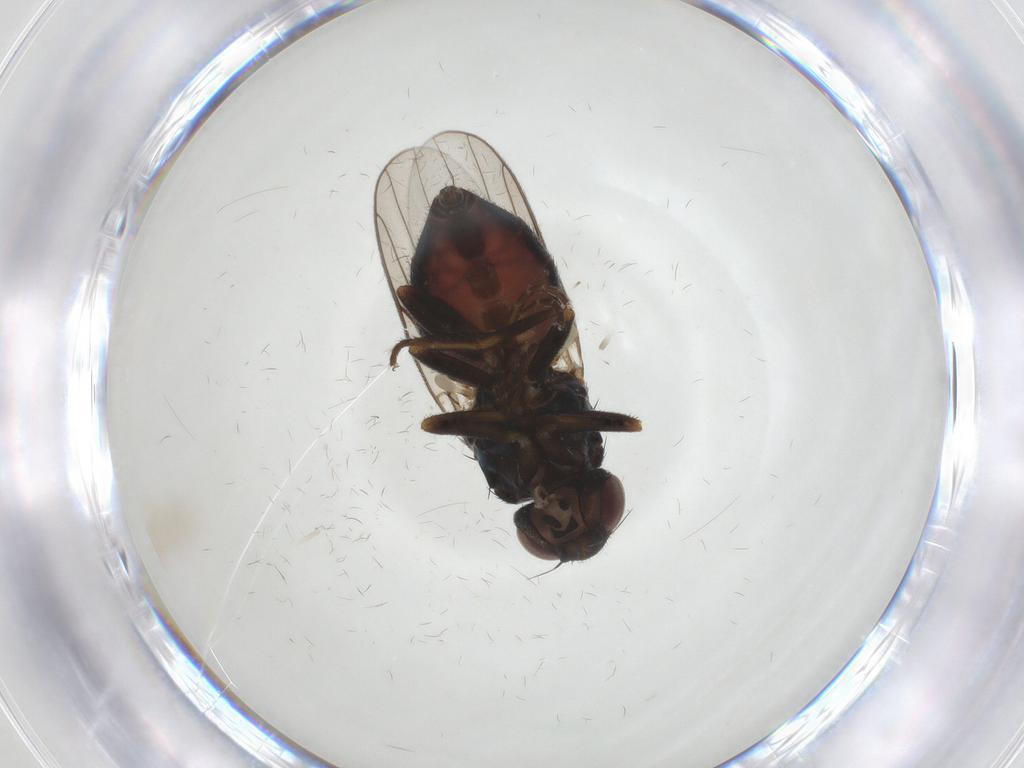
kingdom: Animalia
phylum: Arthropoda
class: Insecta
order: Diptera
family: Chloropidae
